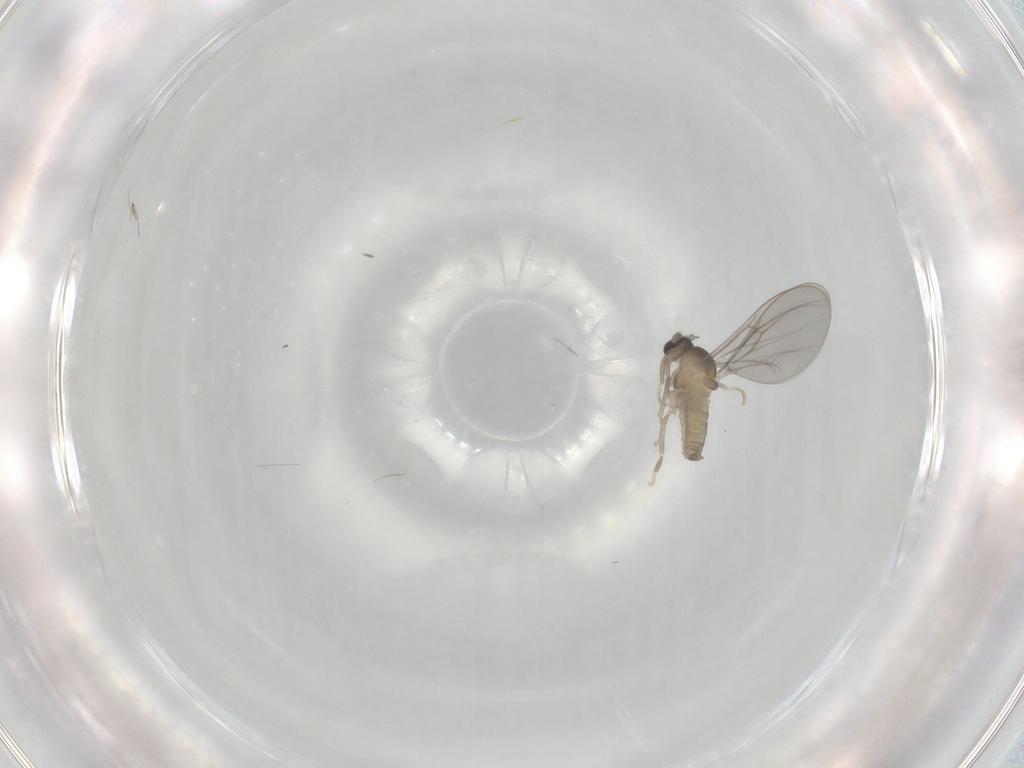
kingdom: Animalia
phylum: Arthropoda
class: Insecta
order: Diptera
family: Cecidomyiidae
